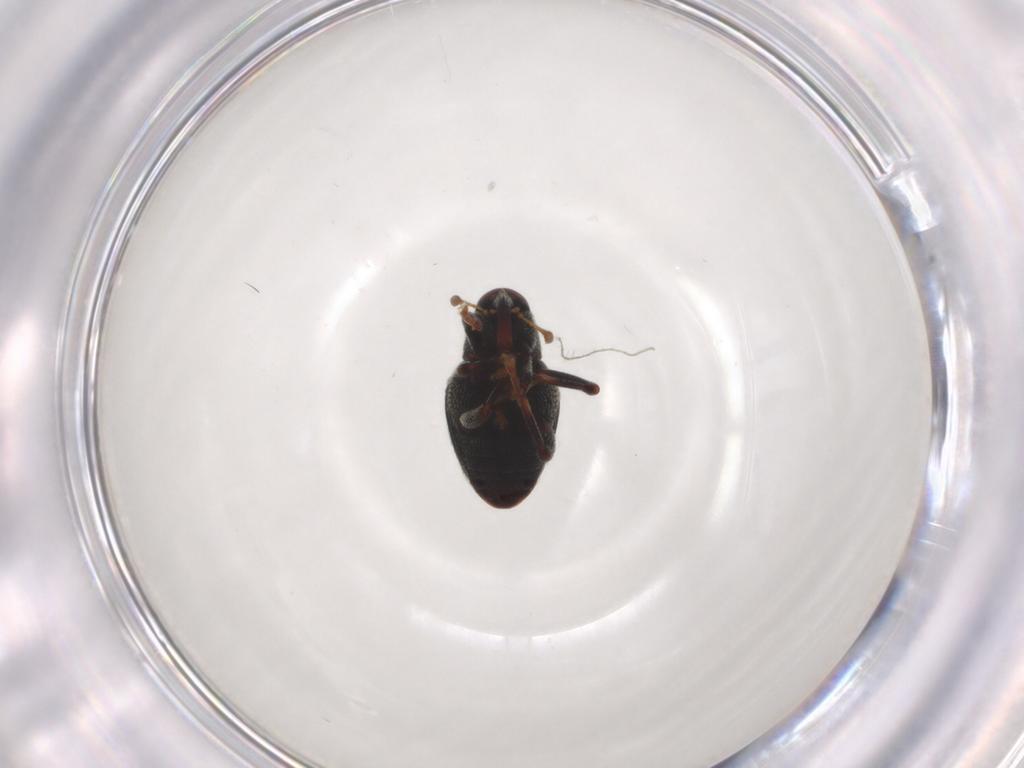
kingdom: Animalia
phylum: Arthropoda
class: Insecta
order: Coleoptera
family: Curculionidae
